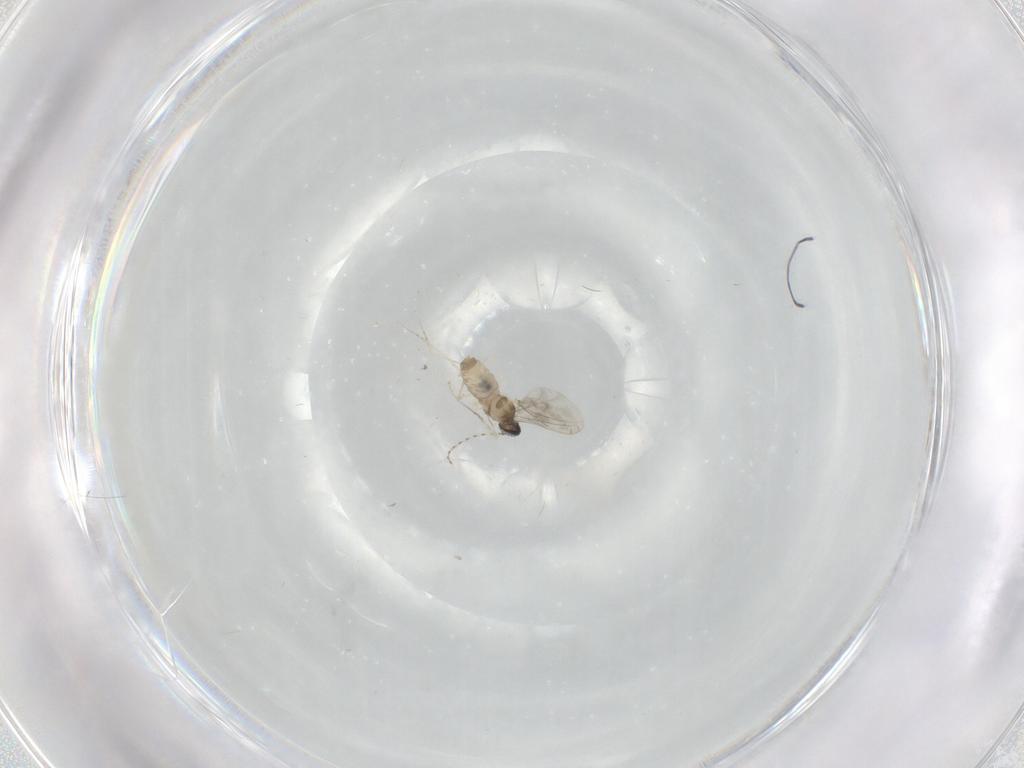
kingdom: Animalia
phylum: Arthropoda
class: Insecta
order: Diptera
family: Cecidomyiidae
